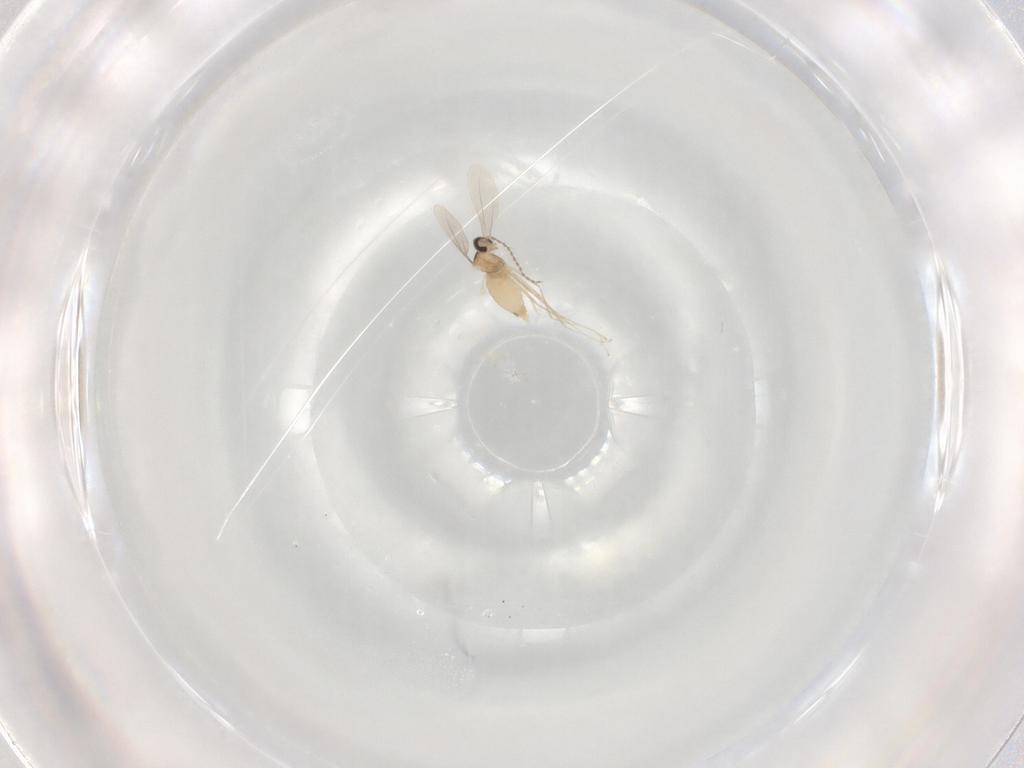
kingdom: Animalia
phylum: Arthropoda
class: Insecta
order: Diptera
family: Cecidomyiidae
